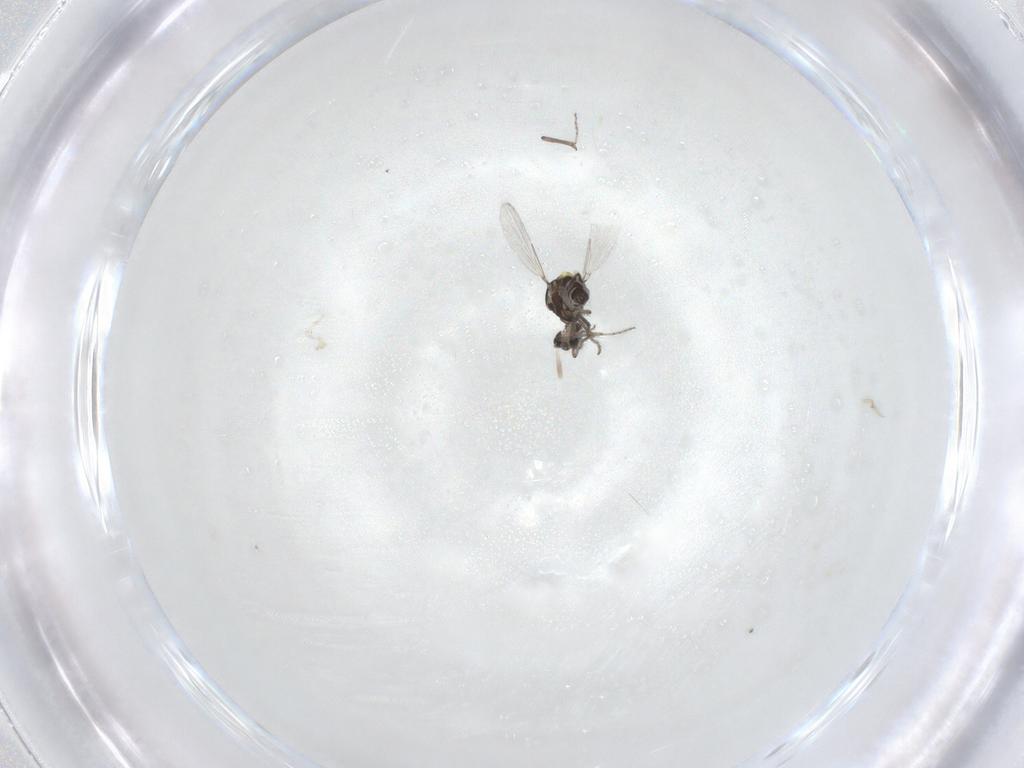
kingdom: Animalia
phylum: Arthropoda
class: Insecta
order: Diptera
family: Ceratopogonidae
